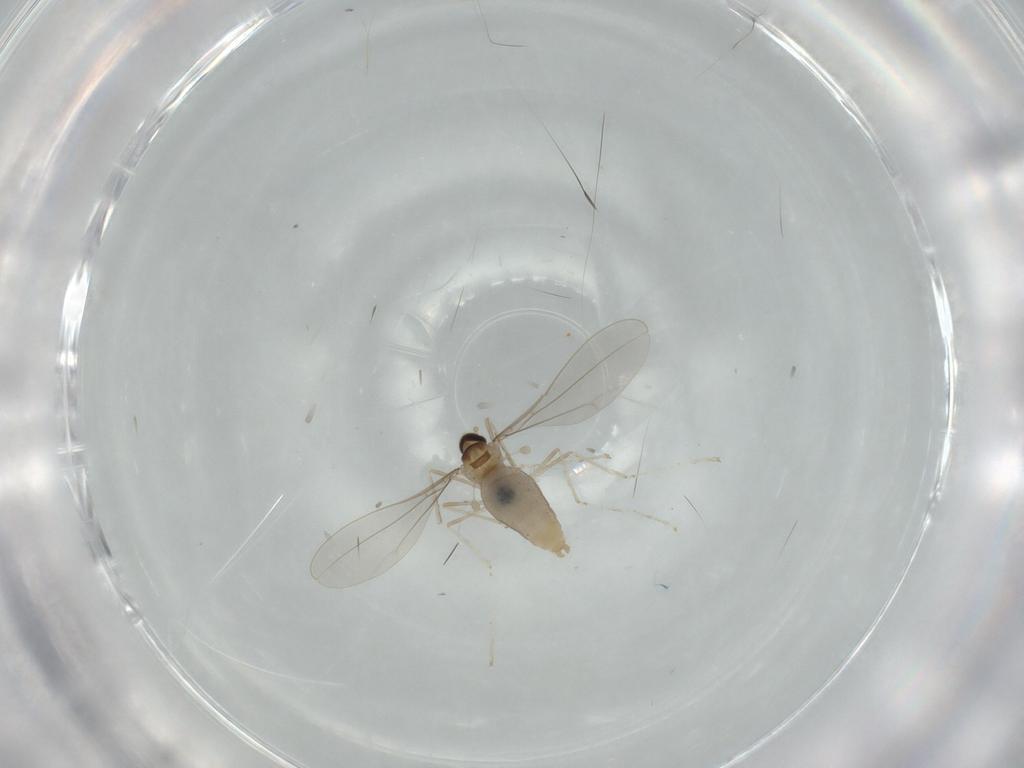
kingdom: Animalia
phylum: Arthropoda
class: Insecta
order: Diptera
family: Cecidomyiidae
